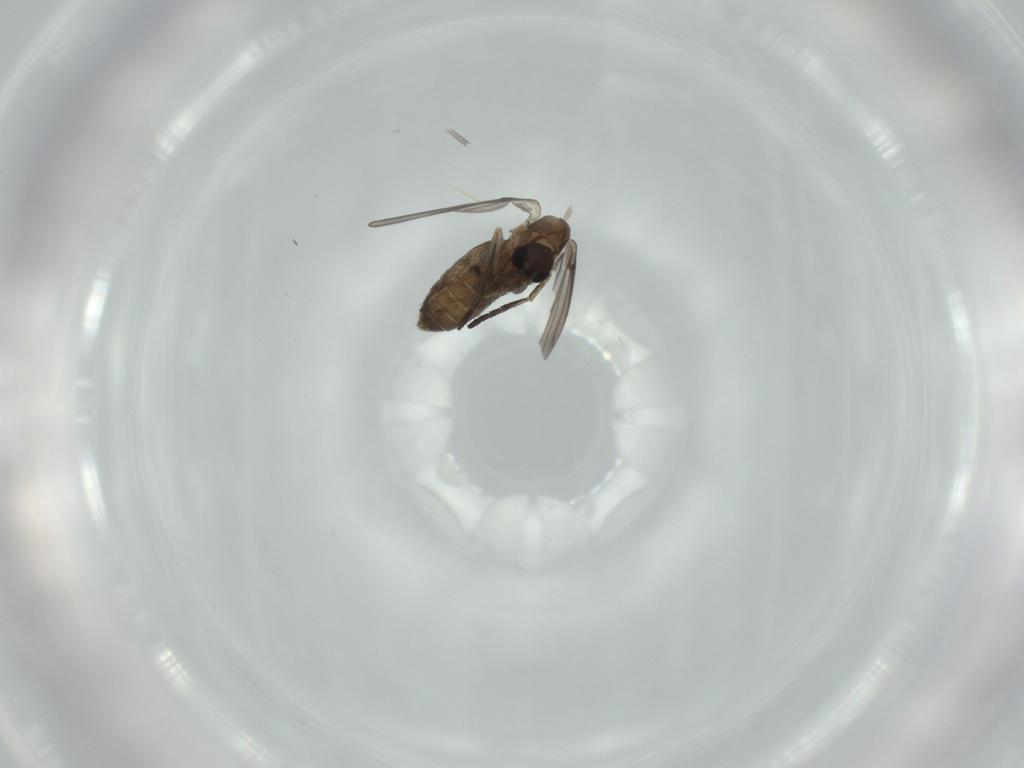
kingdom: Animalia
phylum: Arthropoda
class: Insecta
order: Diptera
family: Psychodidae
